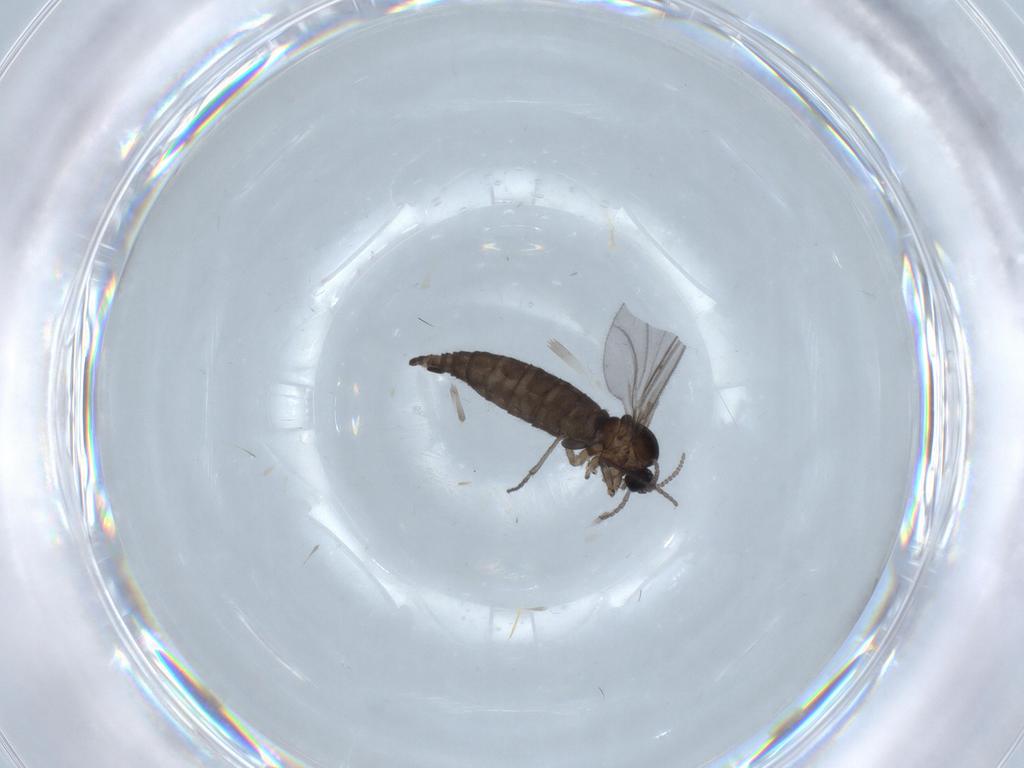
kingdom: Animalia
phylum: Arthropoda
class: Insecta
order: Diptera
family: Sciaridae
